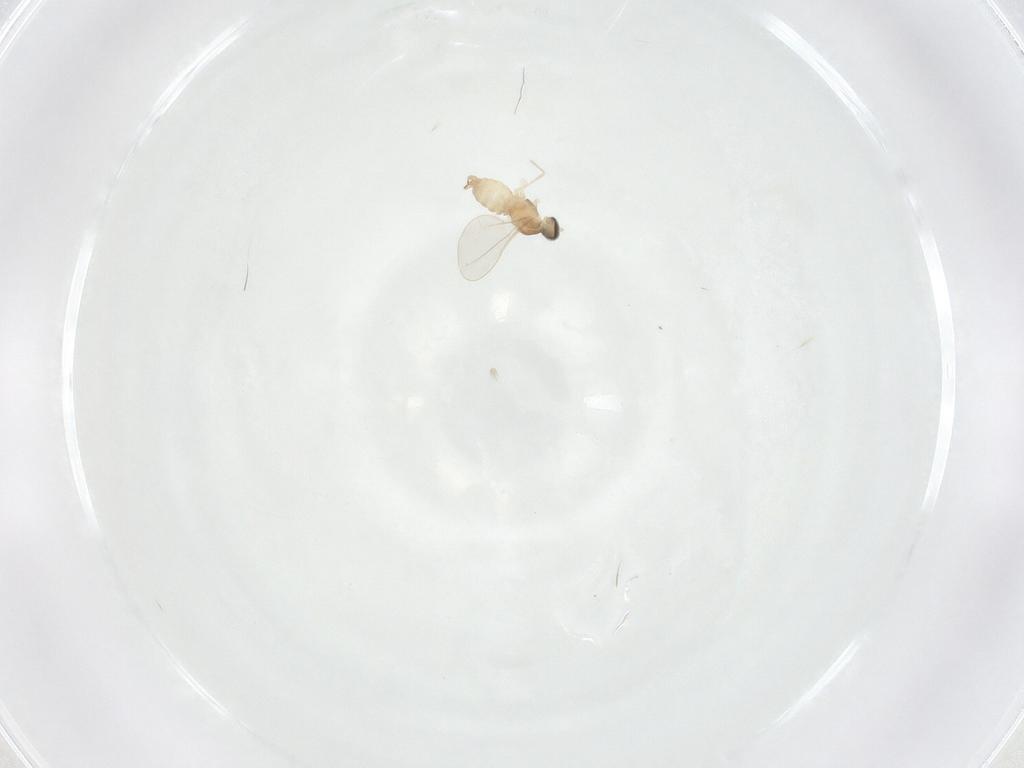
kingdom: Animalia
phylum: Arthropoda
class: Insecta
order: Diptera
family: Cecidomyiidae
